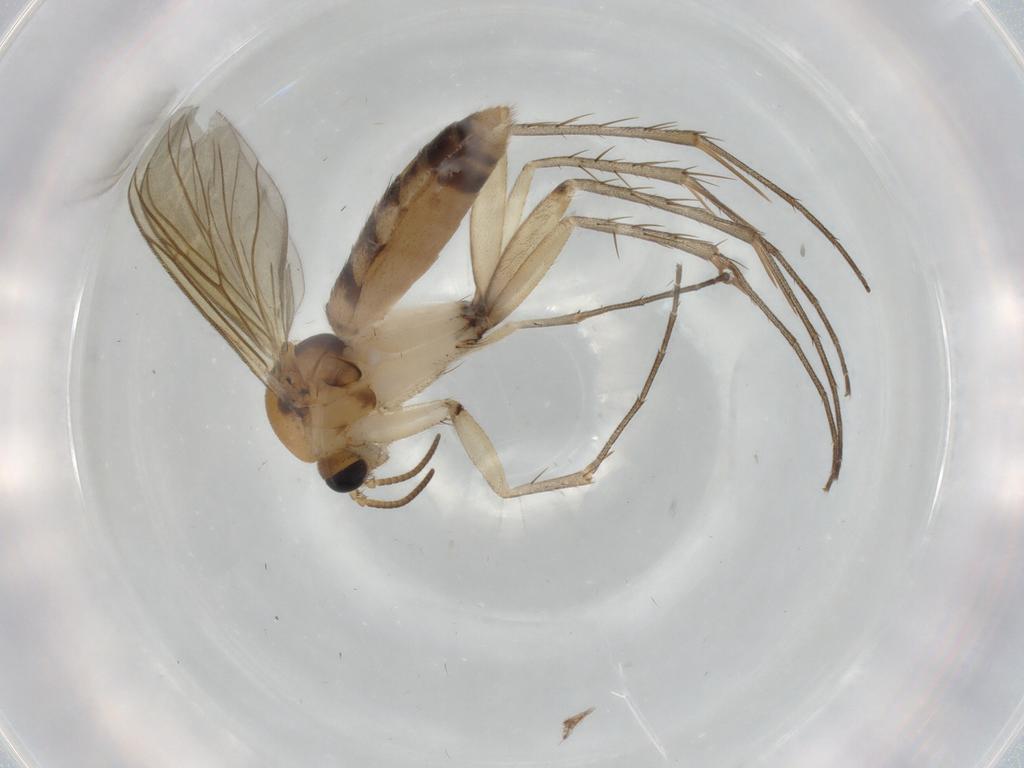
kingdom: Animalia
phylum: Arthropoda
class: Insecta
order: Diptera
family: Mycetophilidae
